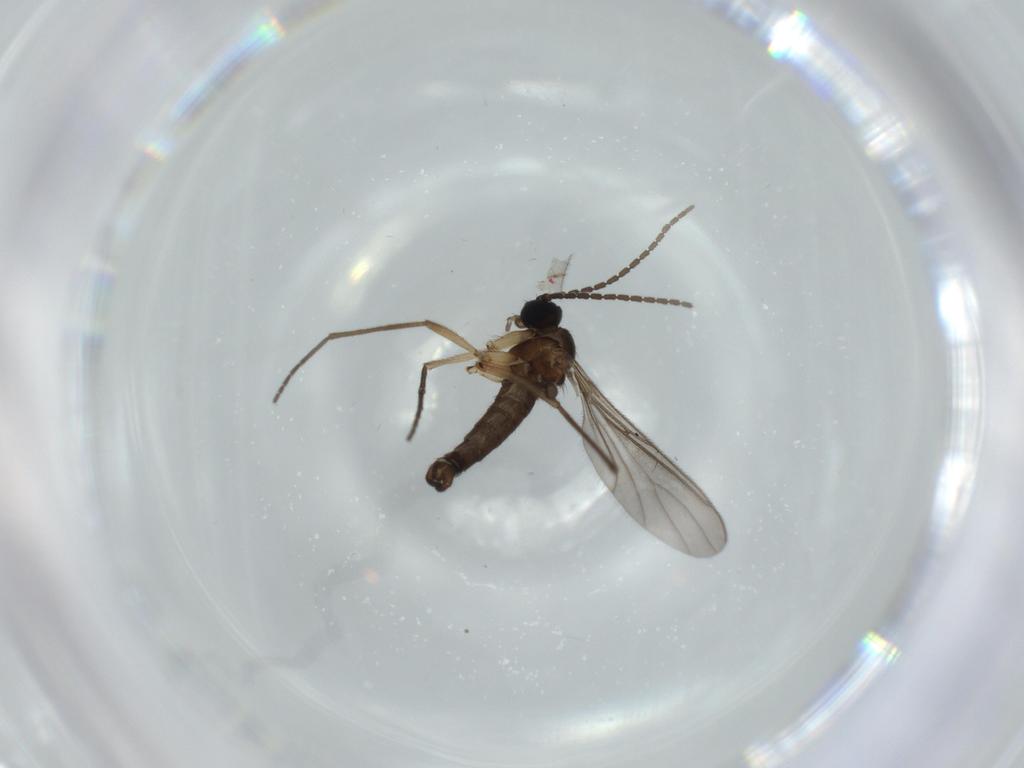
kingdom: Animalia
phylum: Arthropoda
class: Insecta
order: Diptera
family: Sciaridae
